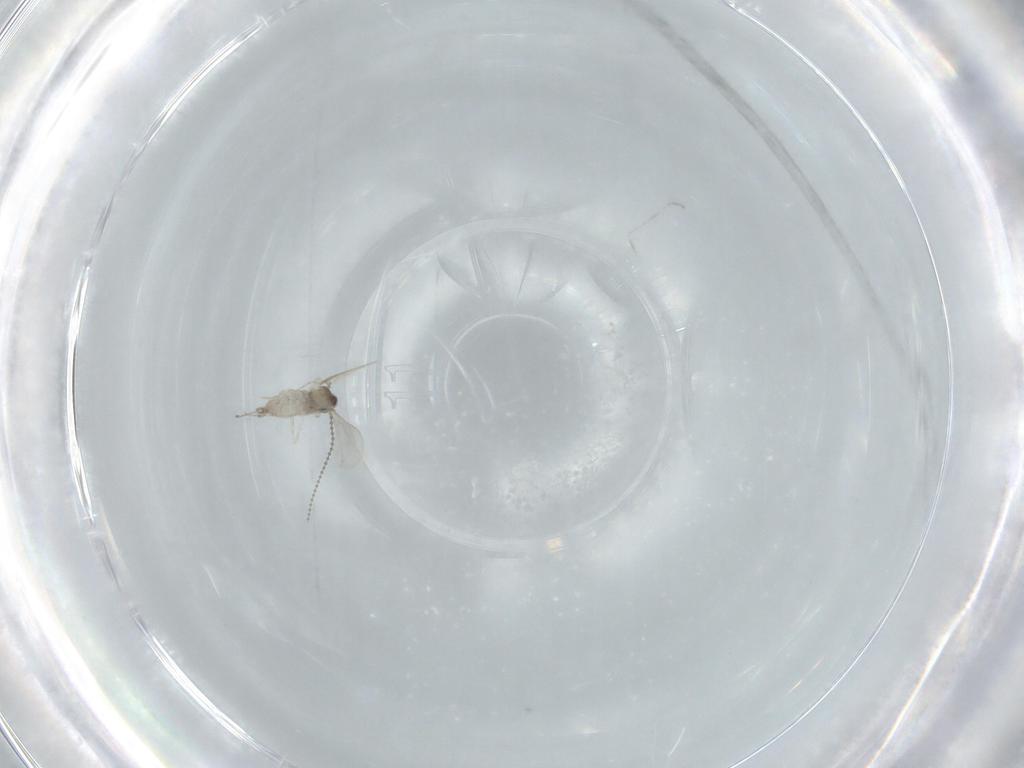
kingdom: Animalia
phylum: Arthropoda
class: Insecta
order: Diptera
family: Cecidomyiidae
